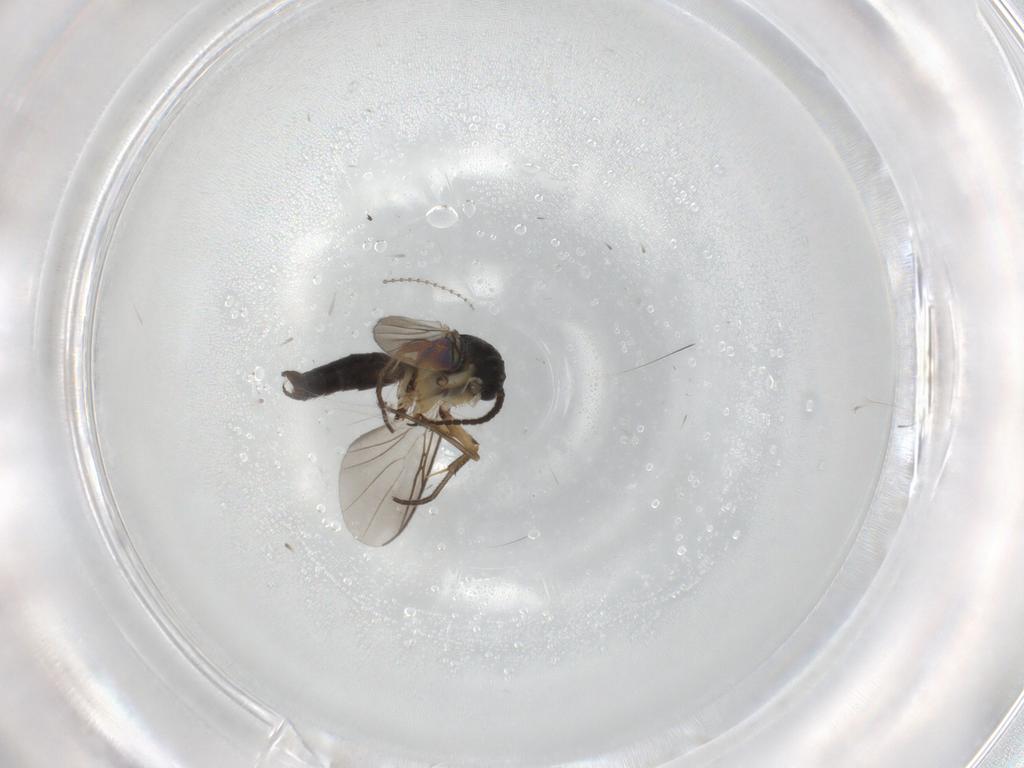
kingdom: Animalia
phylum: Arthropoda
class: Insecta
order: Diptera
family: Mycetophilidae
